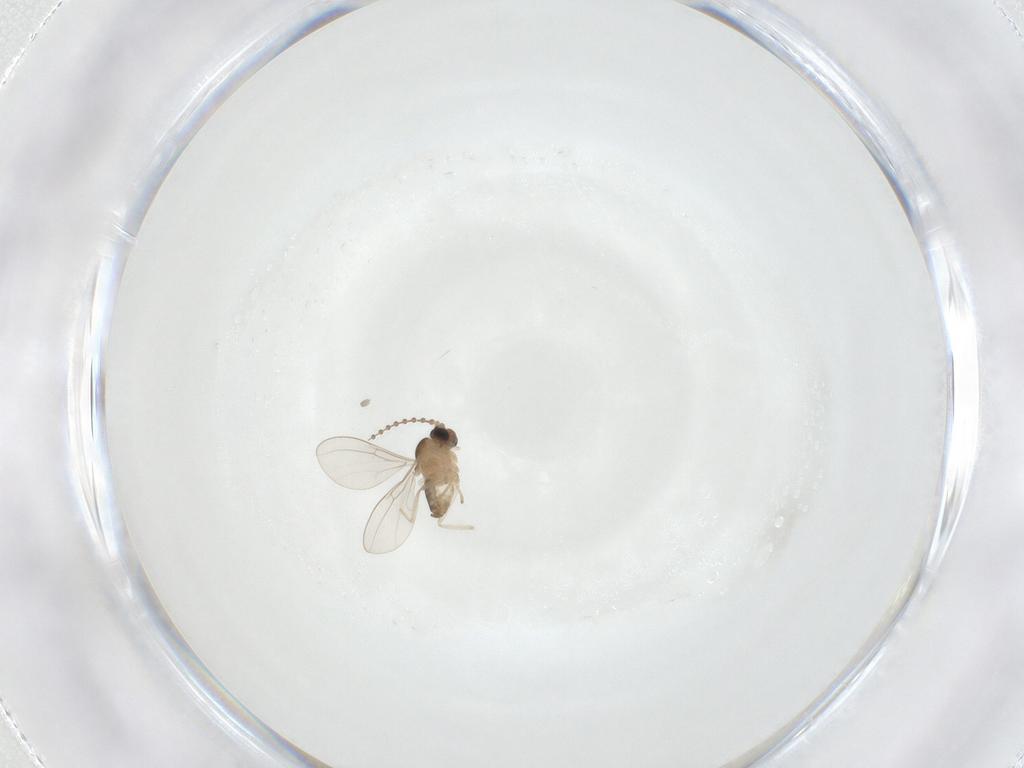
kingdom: Animalia
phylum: Arthropoda
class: Insecta
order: Diptera
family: Cecidomyiidae
